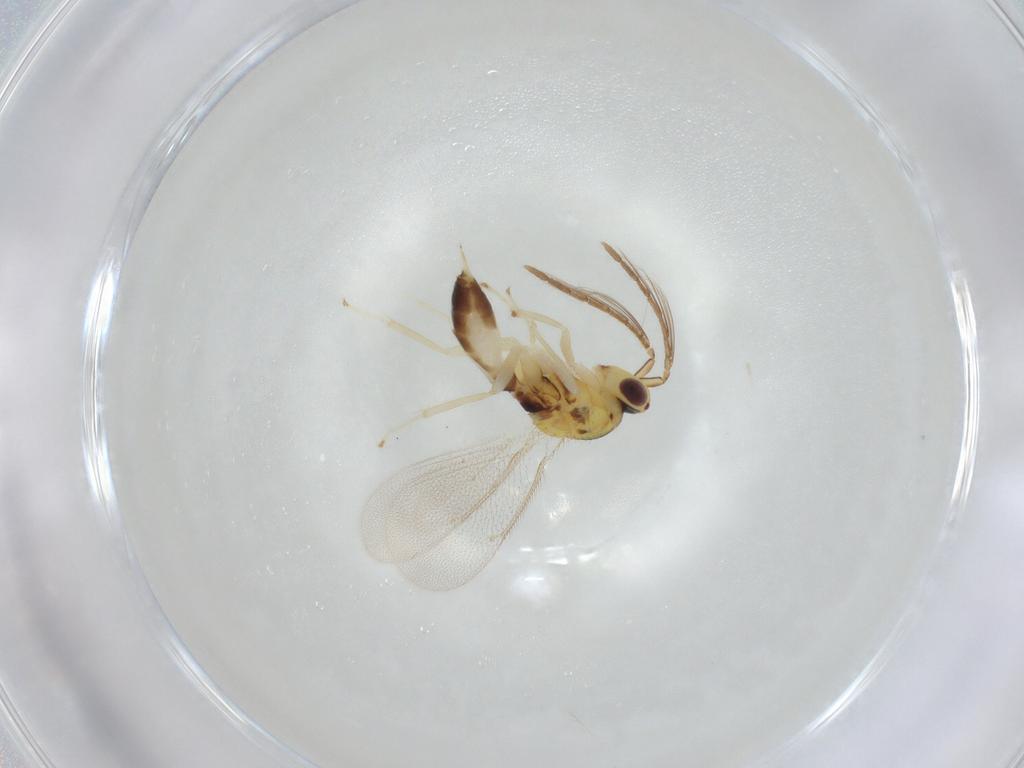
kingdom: Animalia
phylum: Arthropoda
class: Insecta
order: Hymenoptera
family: Eulophidae
